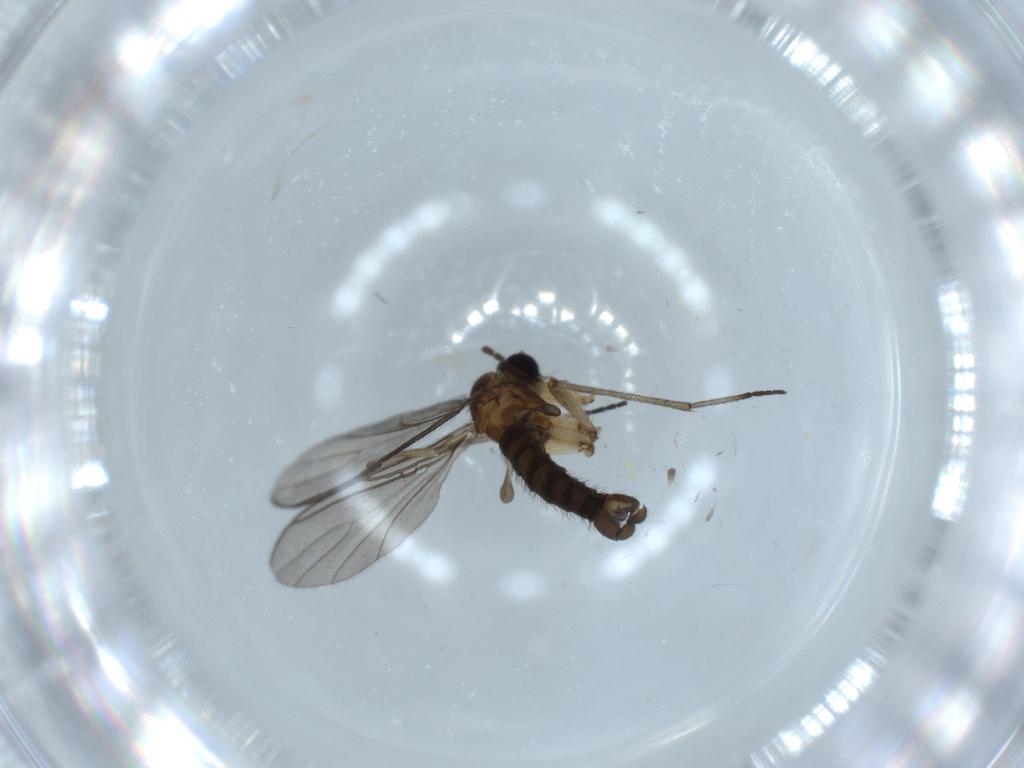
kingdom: Animalia
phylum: Arthropoda
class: Insecta
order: Diptera
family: Sciaridae
